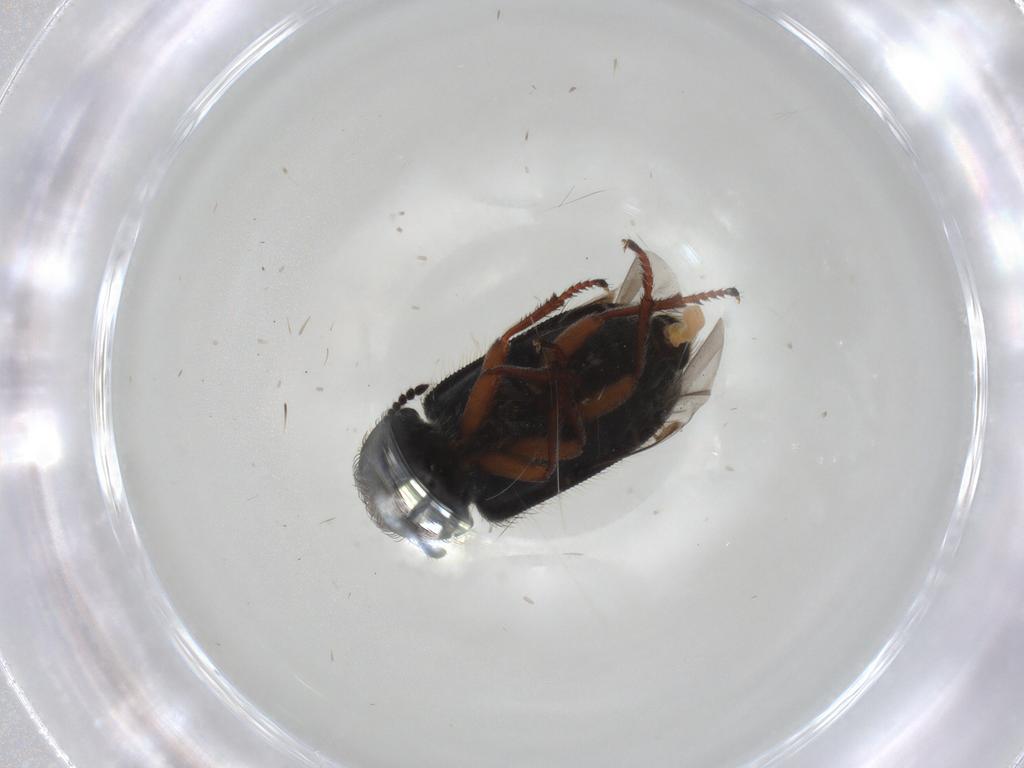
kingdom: Animalia
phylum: Arthropoda
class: Insecta
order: Coleoptera
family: Melyridae
